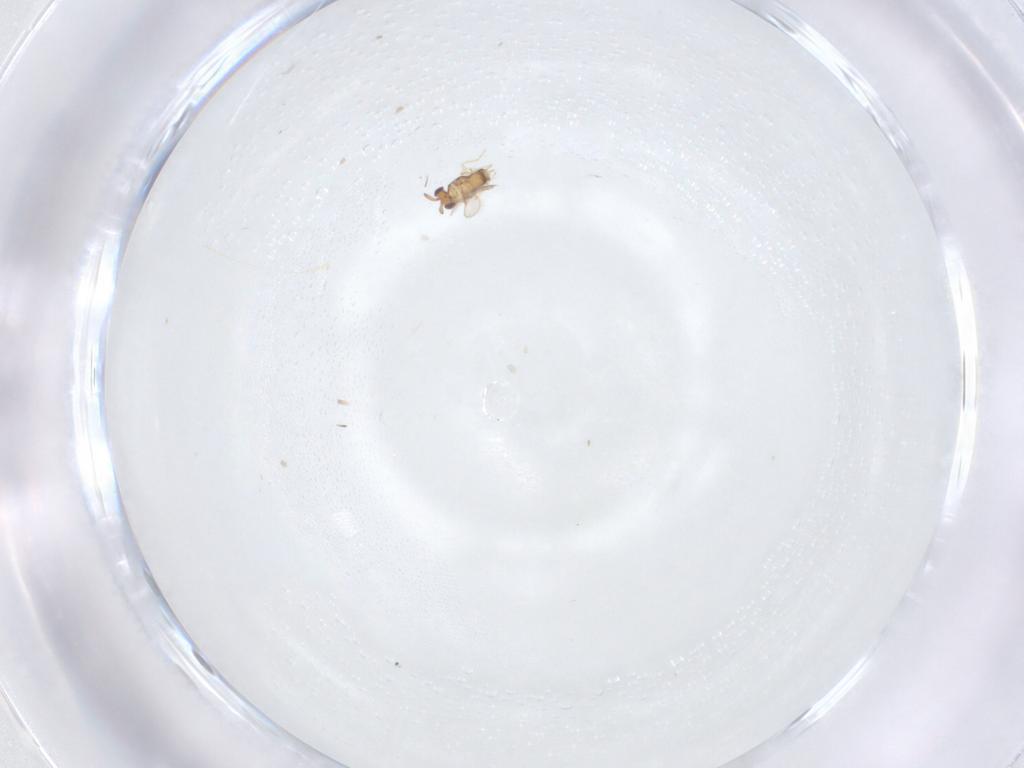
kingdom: Animalia
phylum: Arthropoda
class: Insecta
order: Hymenoptera
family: Aphelinidae
